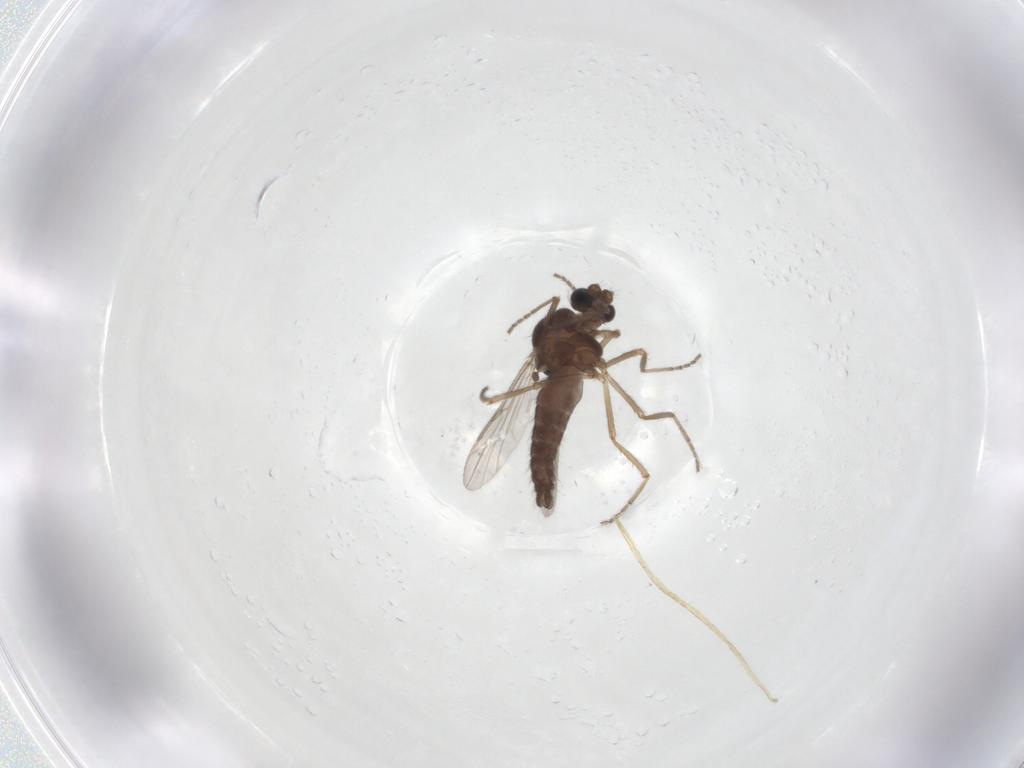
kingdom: Animalia
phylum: Arthropoda
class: Insecta
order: Diptera
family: Ceratopogonidae
